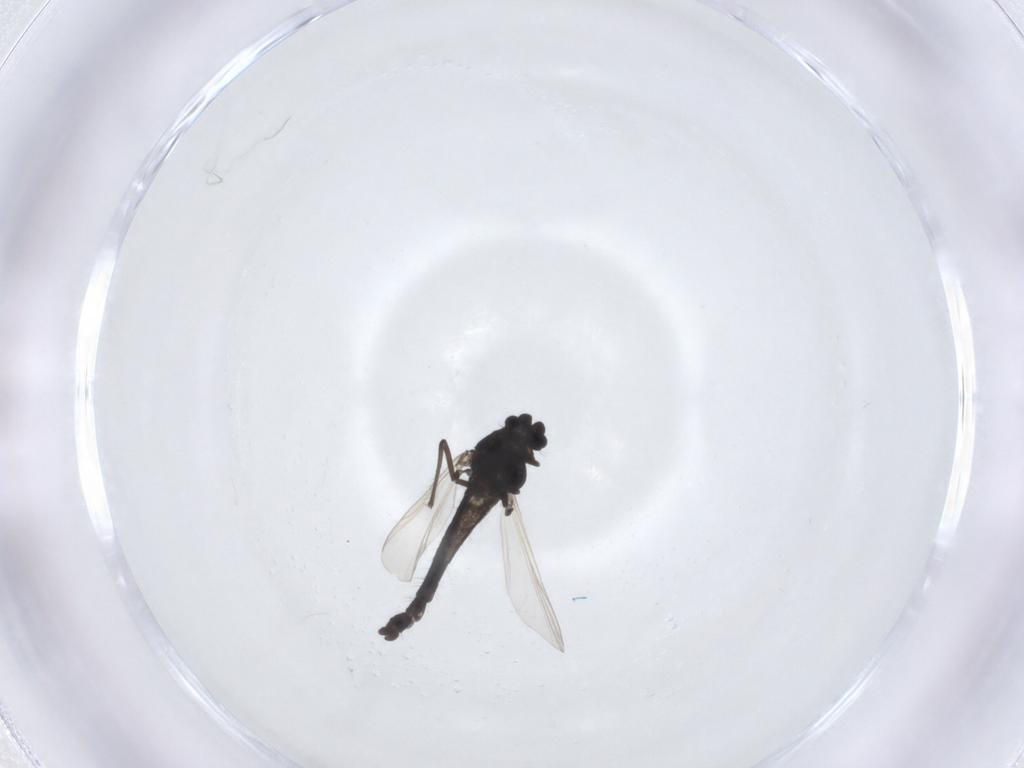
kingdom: Animalia
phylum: Arthropoda
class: Insecta
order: Diptera
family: Chironomidae
